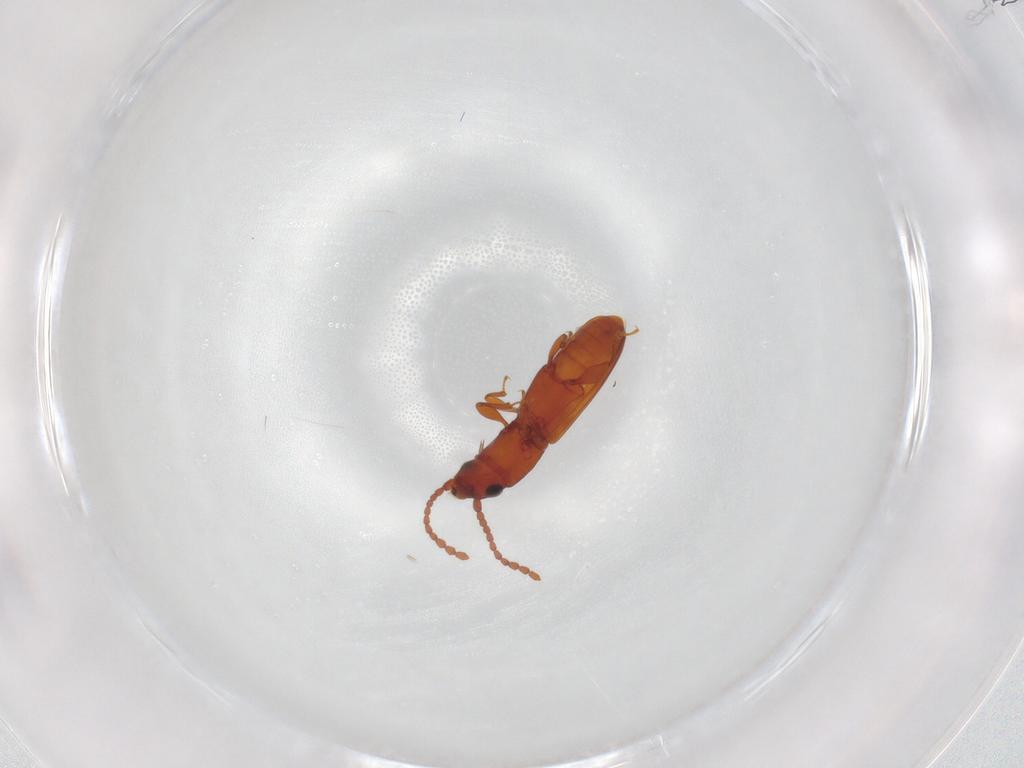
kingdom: Animalia
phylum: Arthropoda
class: Insecta
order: Coleoptera
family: Laemophloeidae
